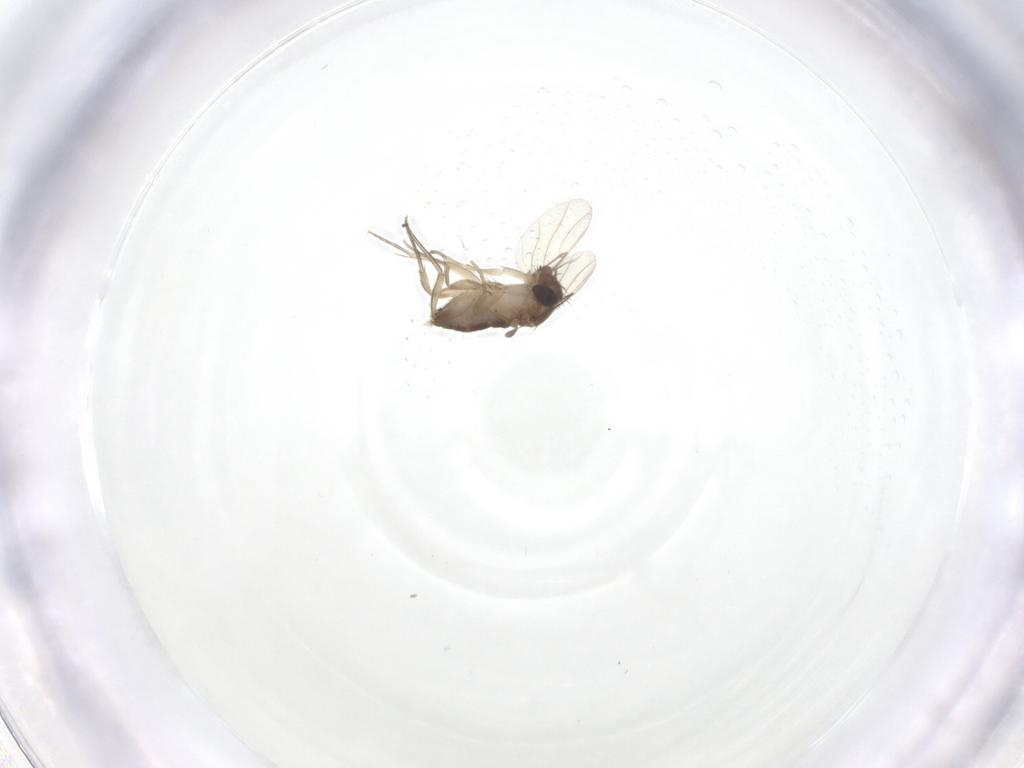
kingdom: Animalia
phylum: Arthropoda
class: Insecta
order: Diptera
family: Phoridae
